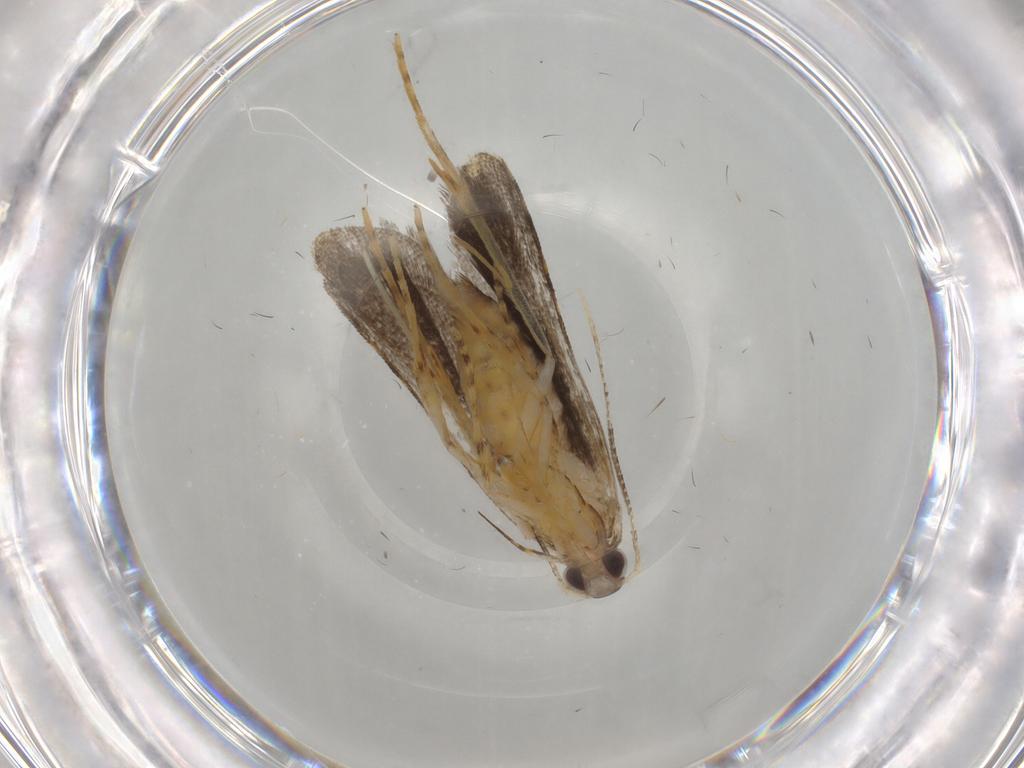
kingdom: Animalia
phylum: Arthropoda
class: Insecta
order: Lepidoptera
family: Cosmopterigidae
